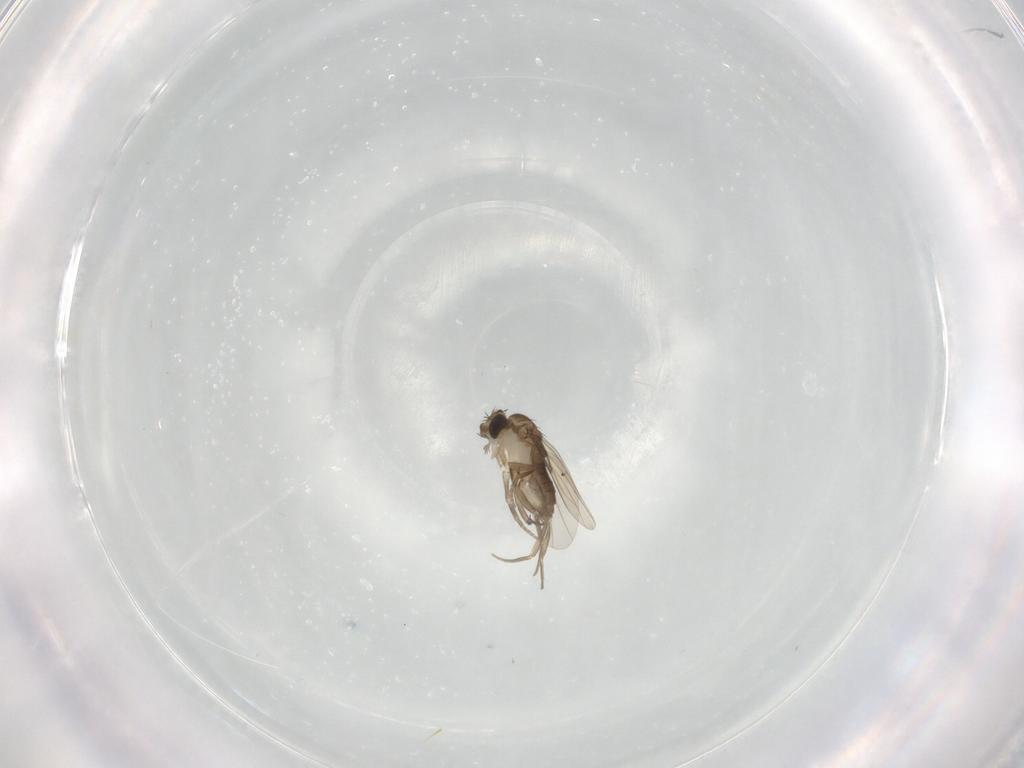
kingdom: Animalia
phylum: Arthropoda
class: Insecta
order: Diptera
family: Phoridae
